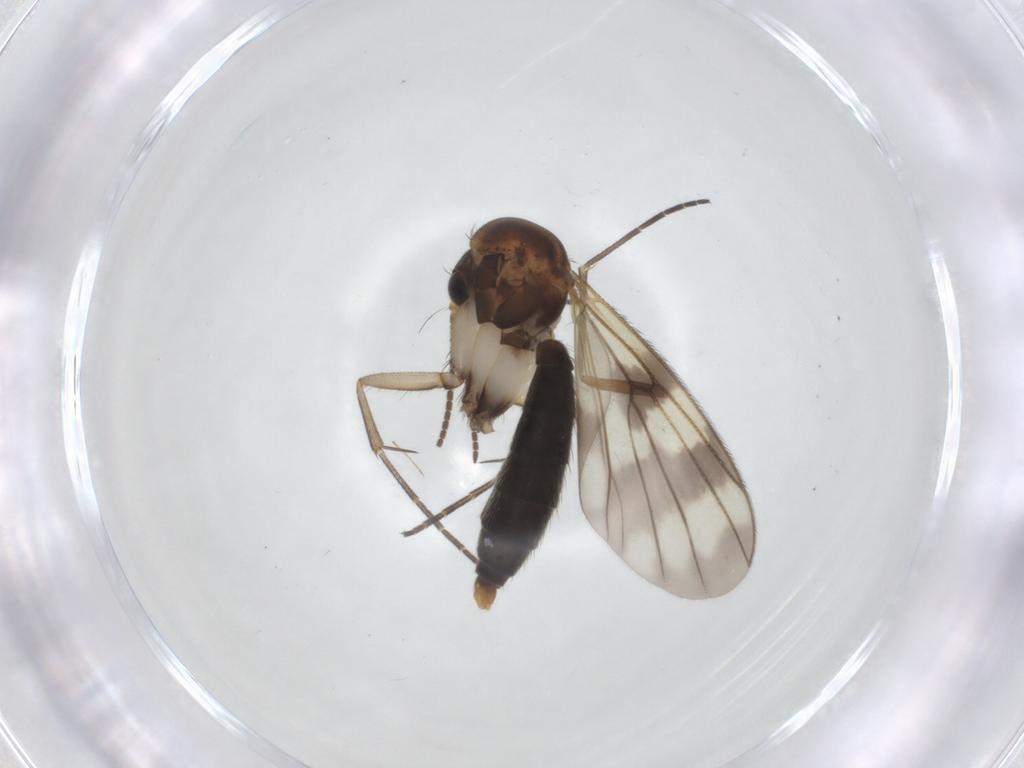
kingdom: Animalia
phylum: Arthropoda
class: Insecta
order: Diptera
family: Mycetophilidae
